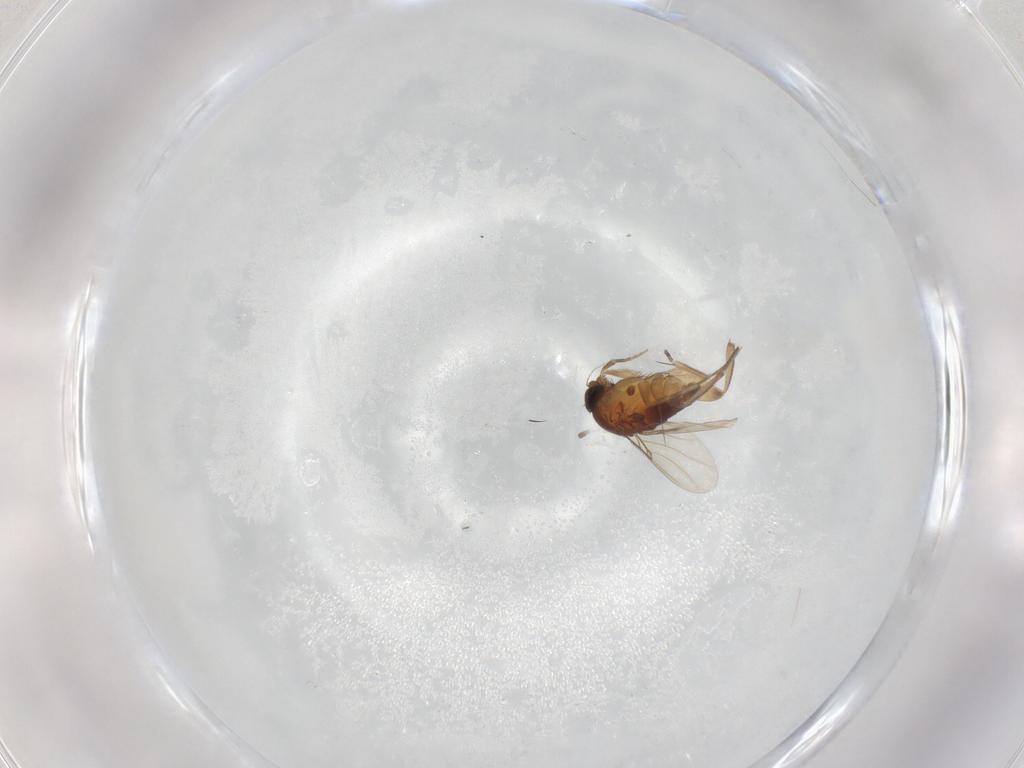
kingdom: Animalia
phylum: Arthropoda
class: Insecta
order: Diptera
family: Phoridae
